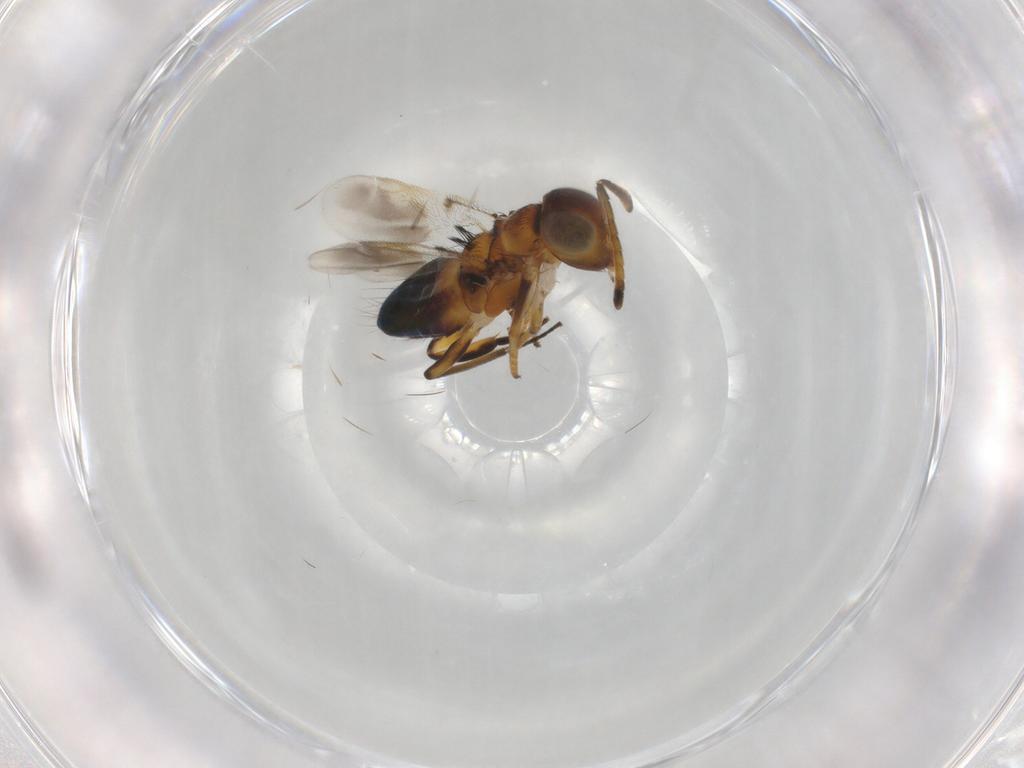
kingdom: Animalia
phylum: Arthropoda
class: Insecta
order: Hymenoptera
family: Encyrtidae
